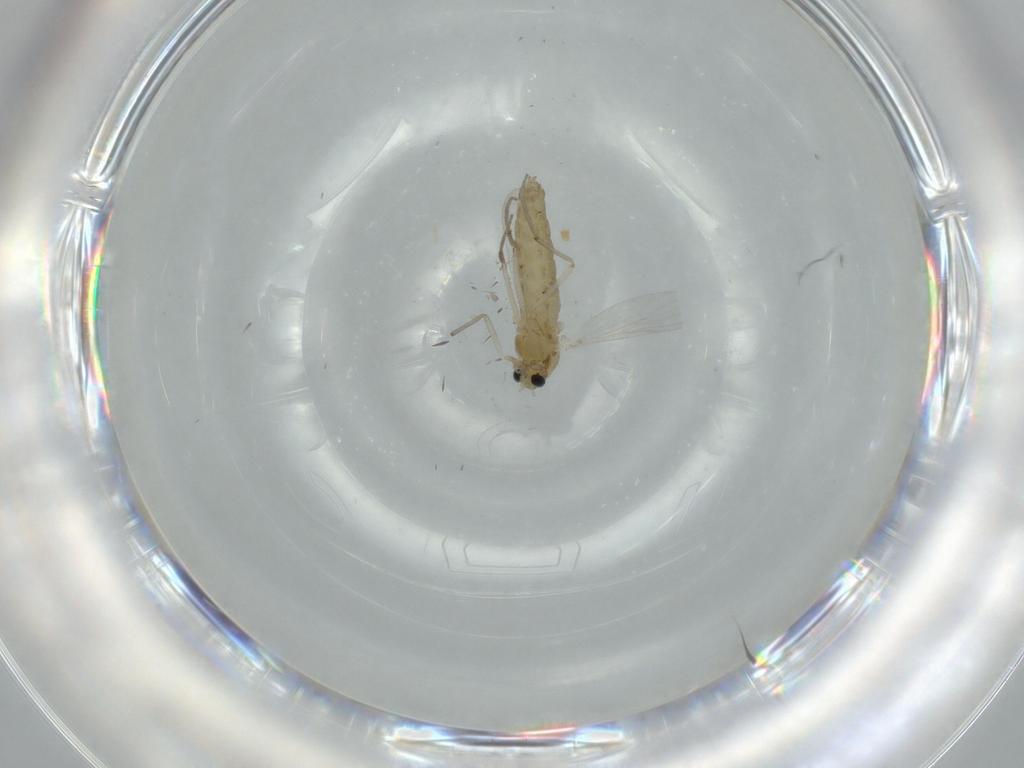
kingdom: Animalia
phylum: Arthropoda
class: Insecta
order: Diptera
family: Chironomidae
